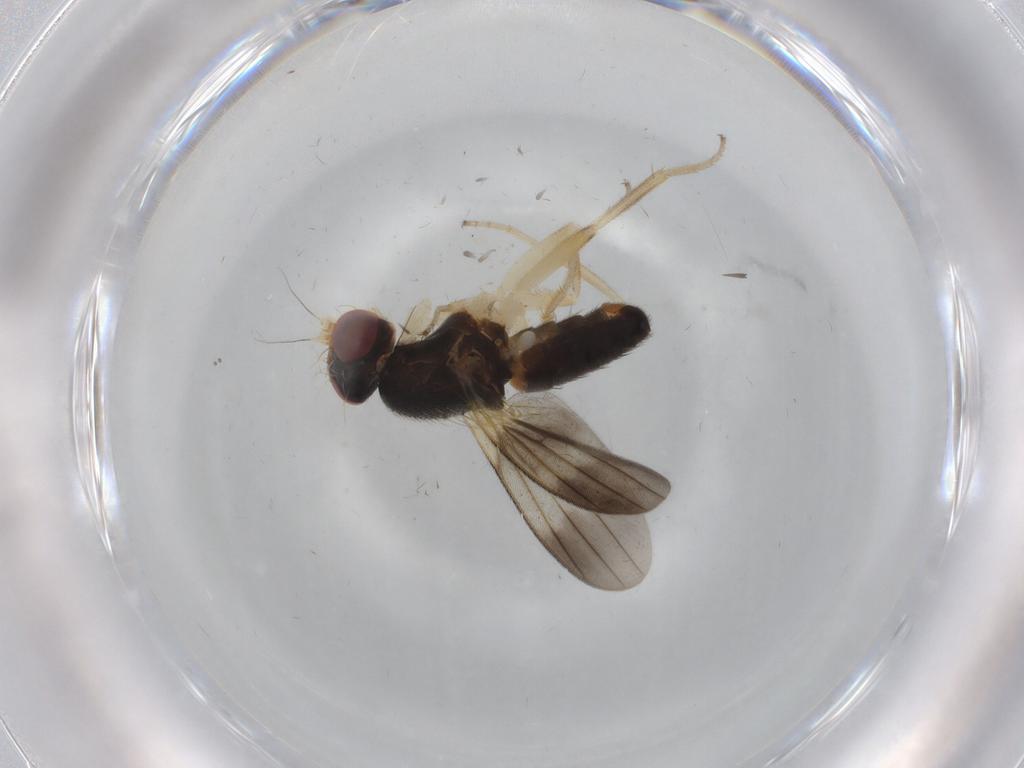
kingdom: Animalia
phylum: Arthropoda
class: Insecta
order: Diptera
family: Clusiidae
